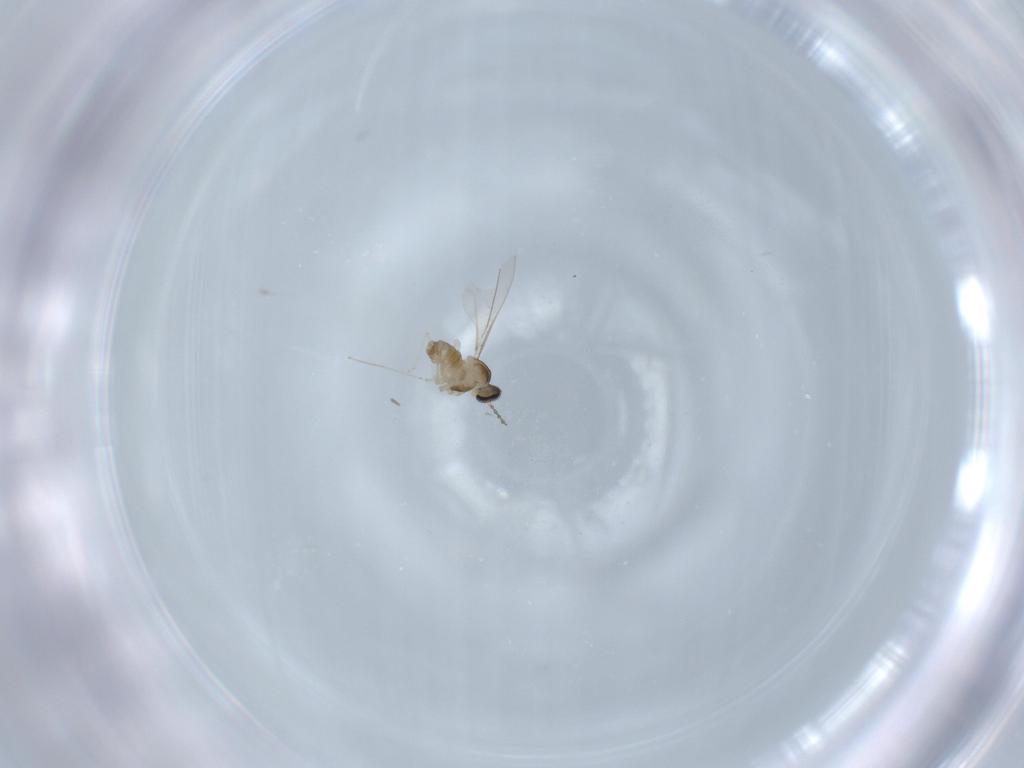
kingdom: Animalia
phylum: Arthropoda
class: Insecta
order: Diptera
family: Cecidomyiidae
